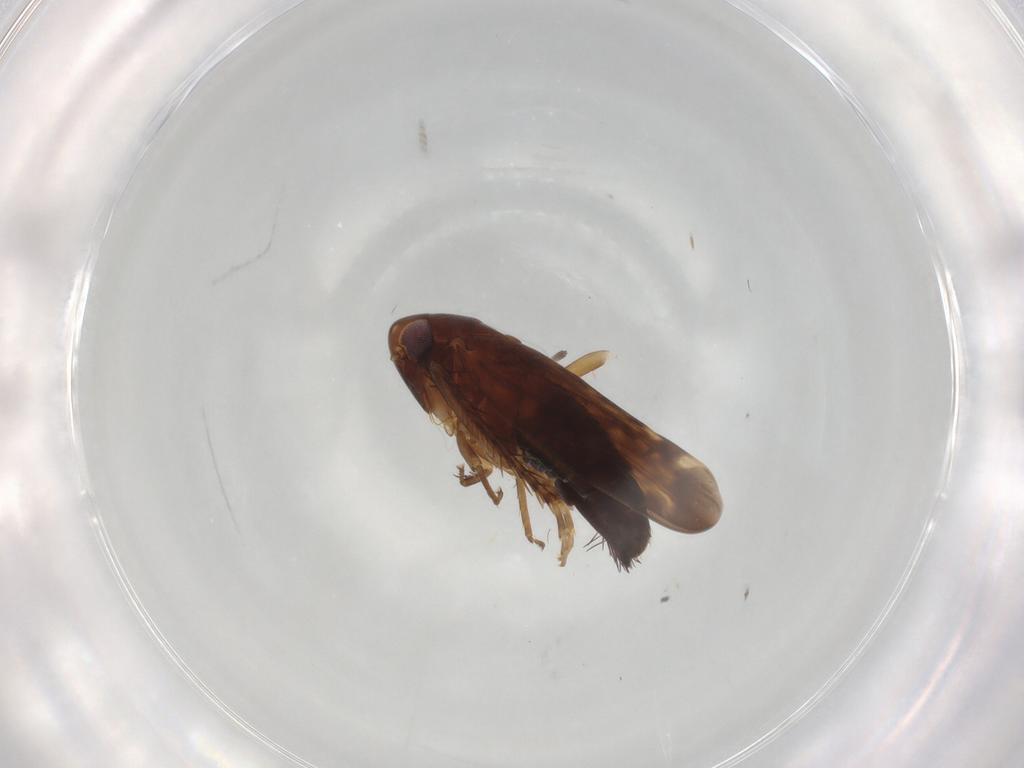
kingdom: Animalia
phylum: Arthropoda
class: Insecta
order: Hemiptera
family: Cicadellidae
